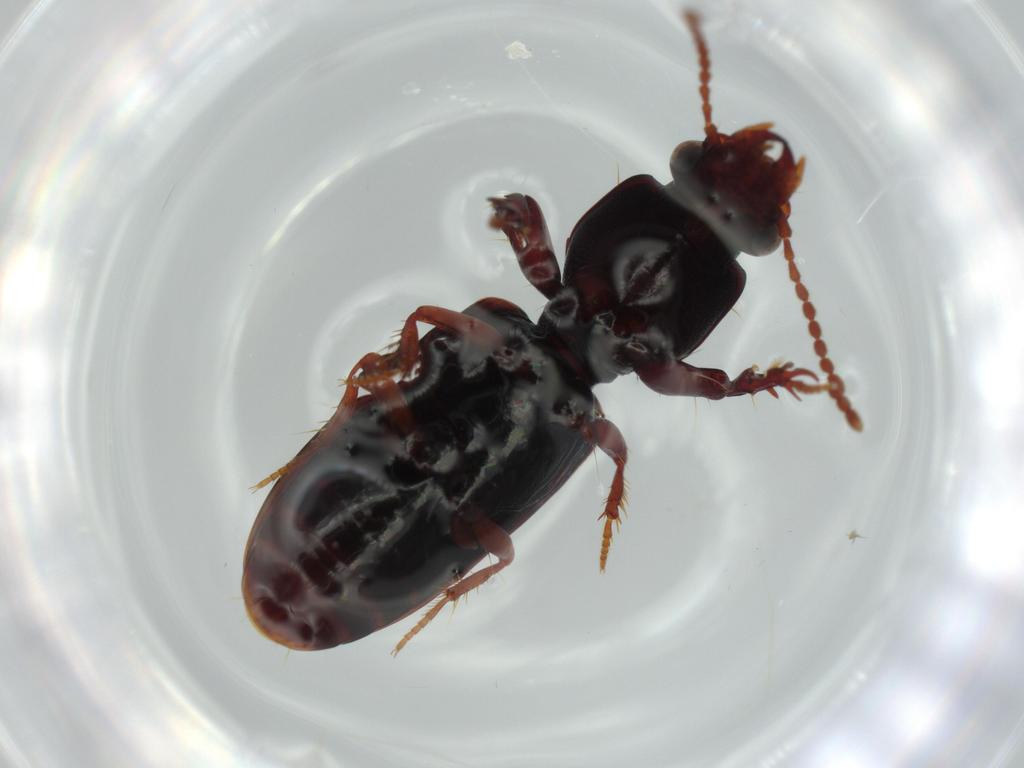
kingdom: Animalia
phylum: Arthropoda
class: Insecta
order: Coleoptera
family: Carabidae
